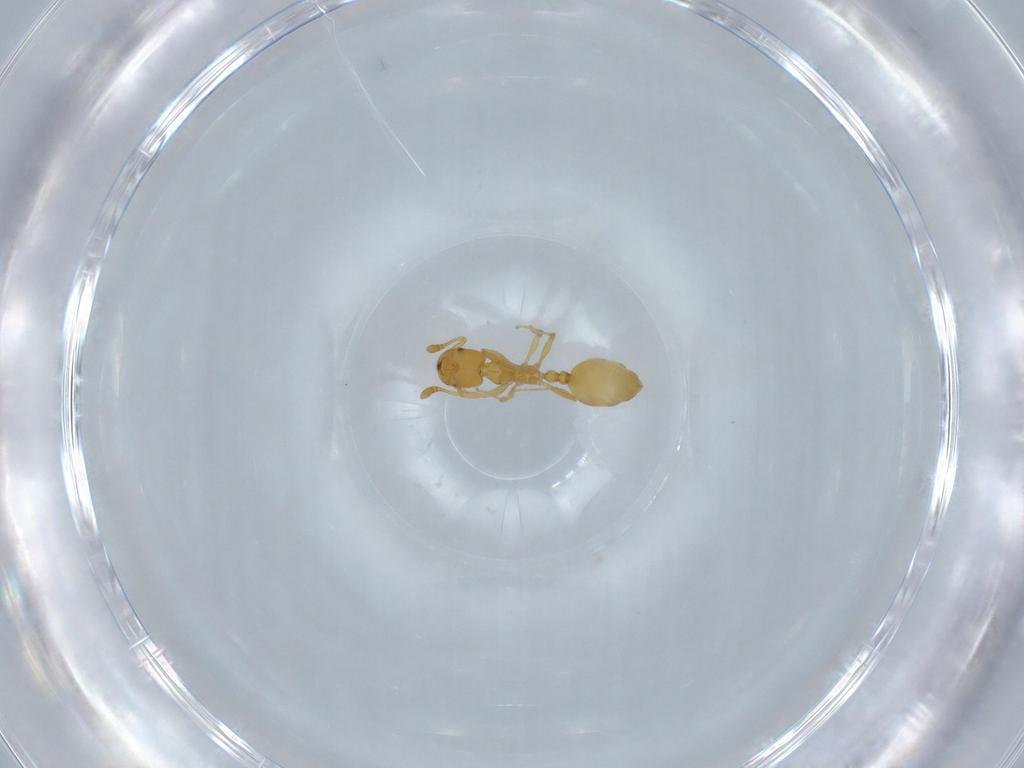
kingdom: Animalia
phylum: Arthropoda
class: Insecta
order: Hymenoptera
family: Formicidae
